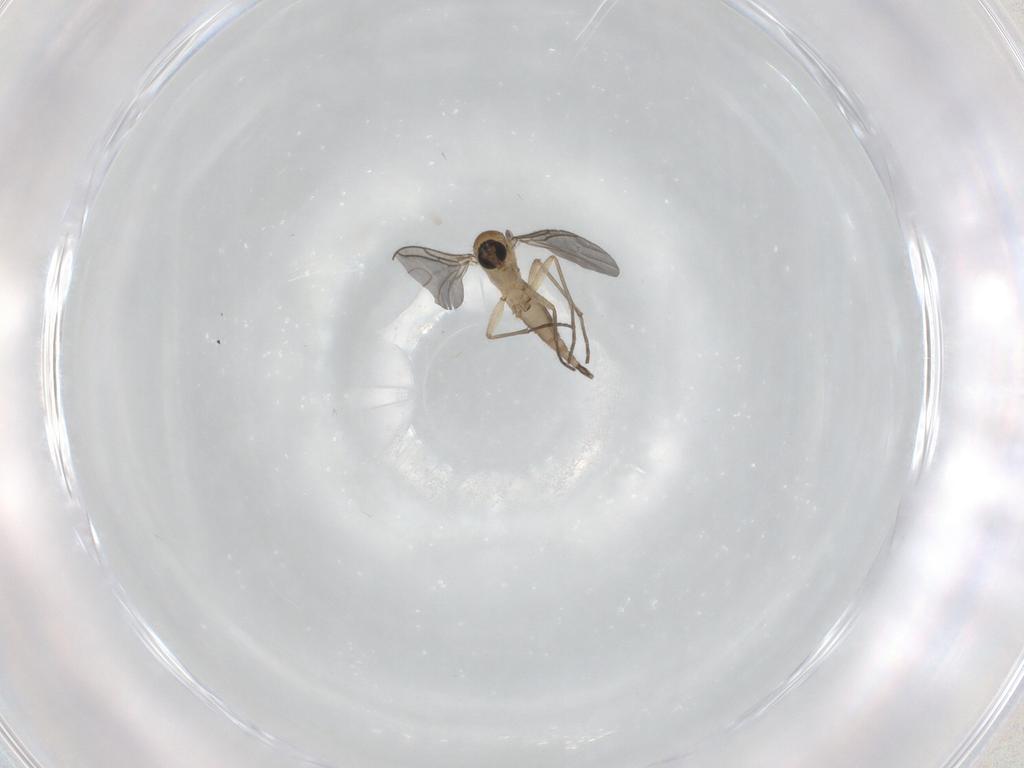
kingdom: Animalia
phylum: Arthropoda
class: Insecta
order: Diptera
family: Sciaridae
